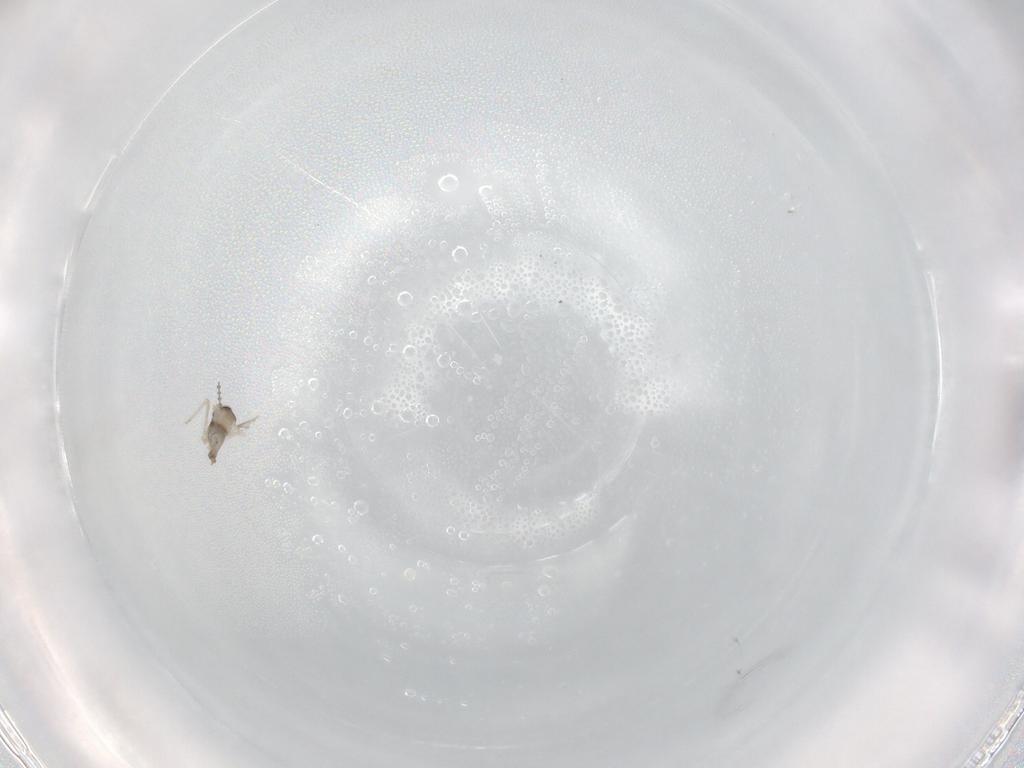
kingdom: Animalia
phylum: Arthropoda
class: Insecta
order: Diptera
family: Cecidomyiidae
